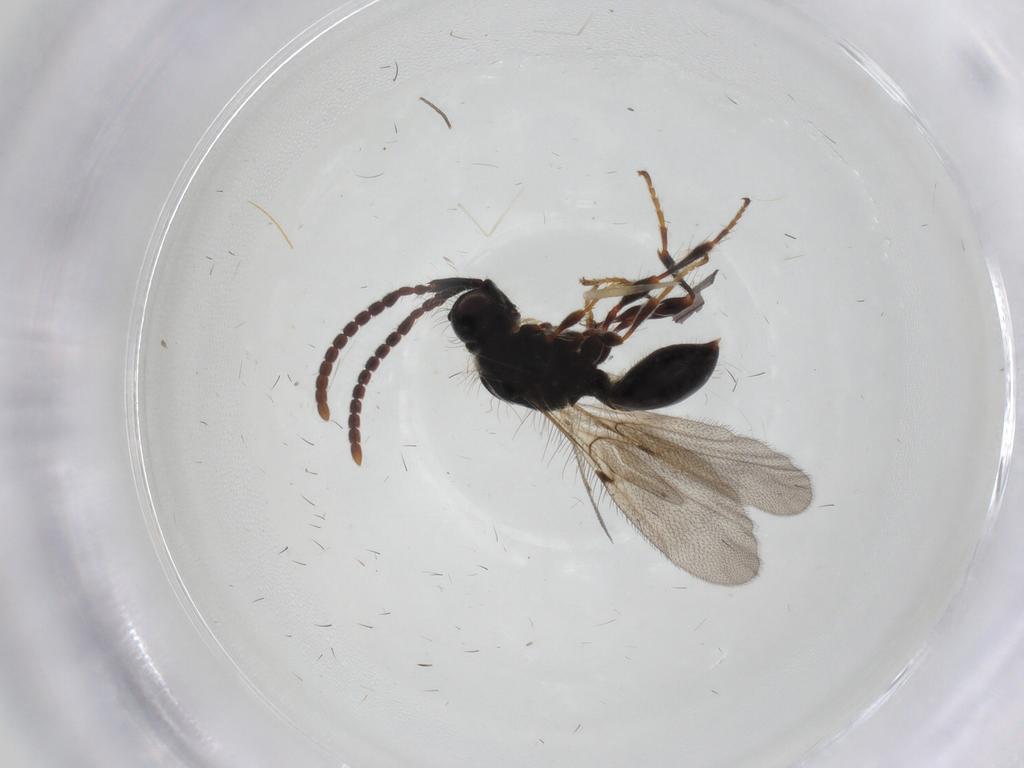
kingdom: Animalia
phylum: Arthropoda
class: Insecta
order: Hymenoptera
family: Diapriidae
